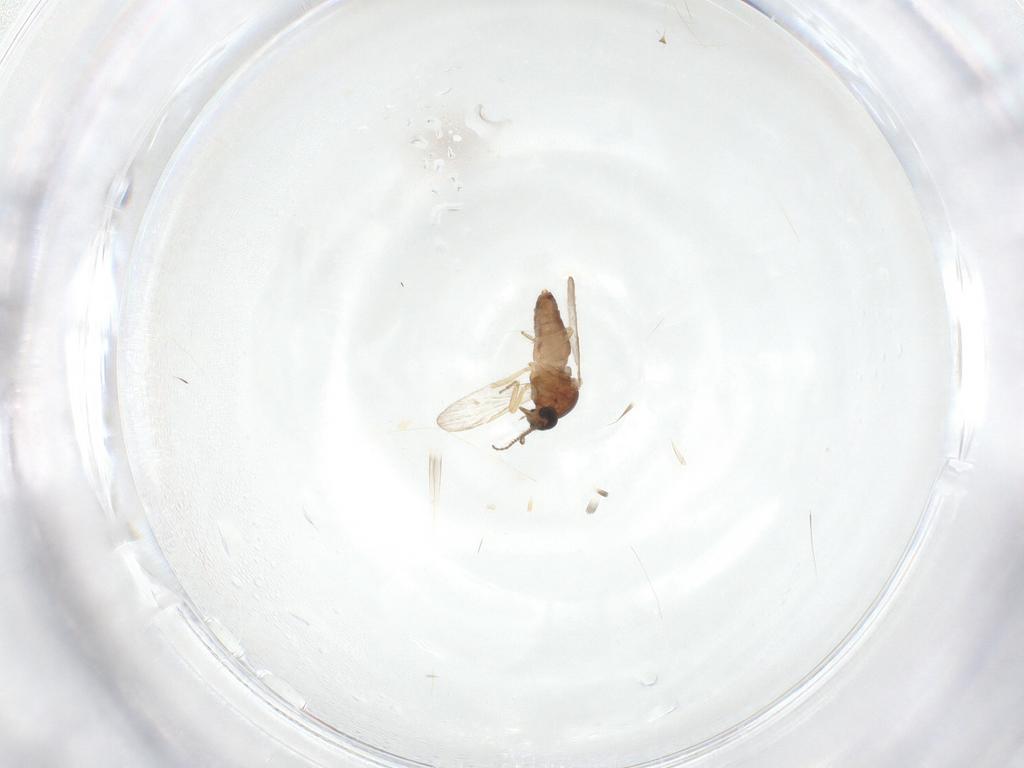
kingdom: Animalia
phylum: Arthropoda
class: Insecta
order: Diptera
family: Ceratopogonidae
